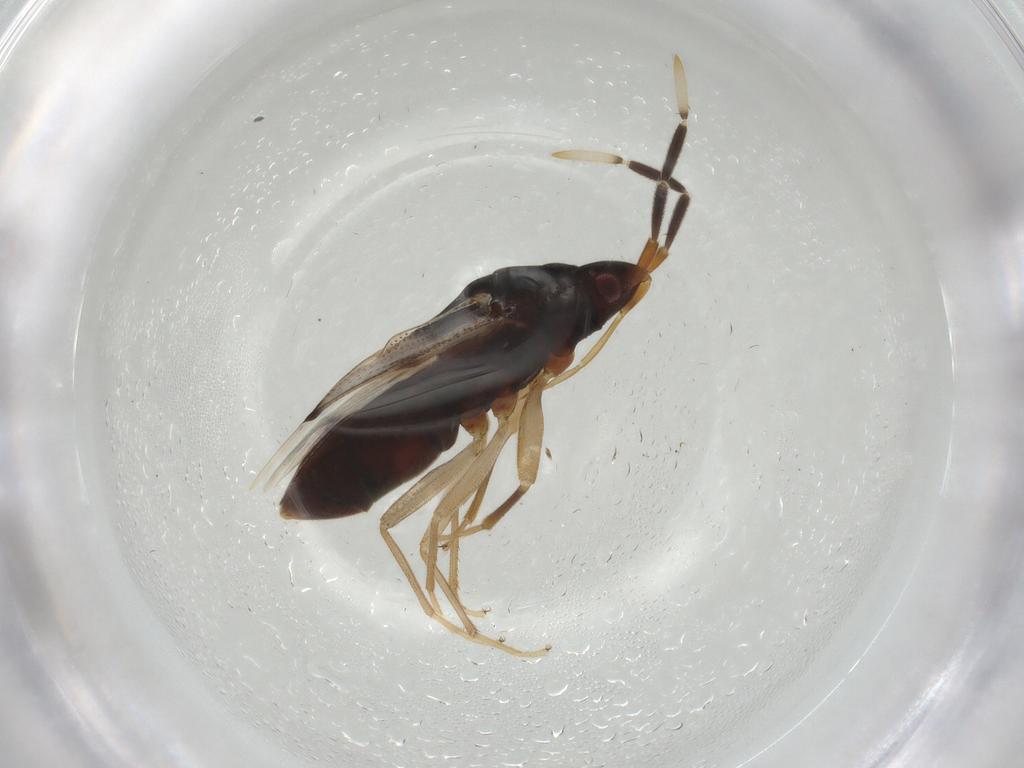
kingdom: Animalia
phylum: Arthropoda
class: Insecta
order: Hemiptera
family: Rhyparochromidae
